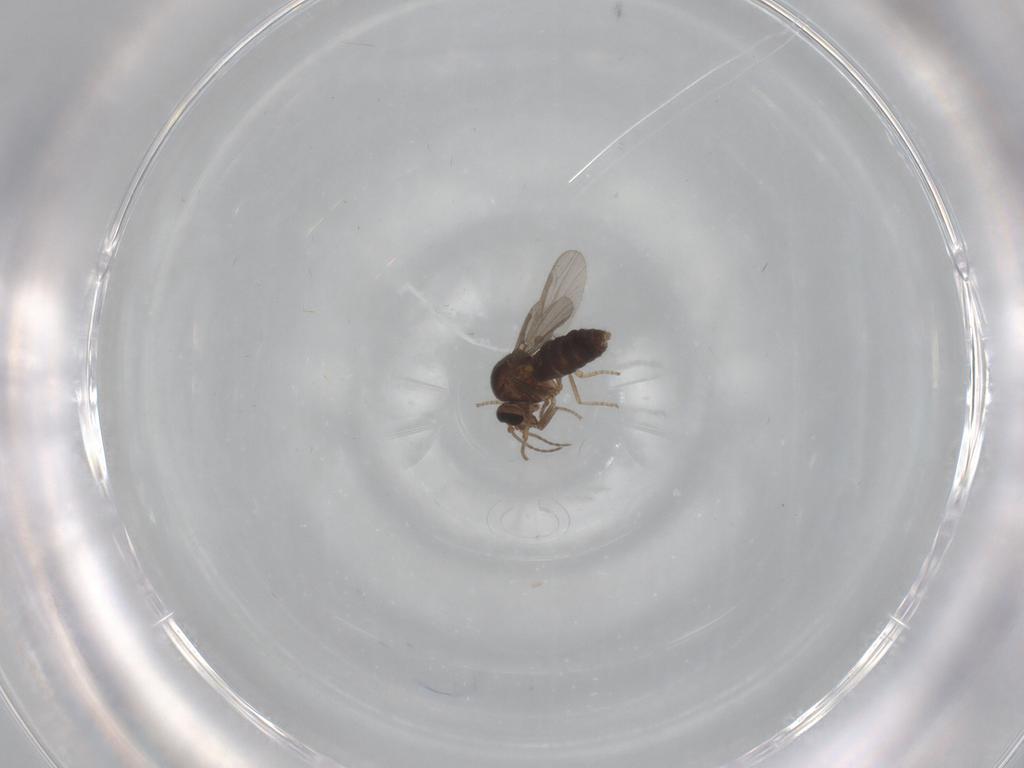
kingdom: Animalia
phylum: Arthropoda
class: Insecta
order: Diptera
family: Ceratopogonidae
